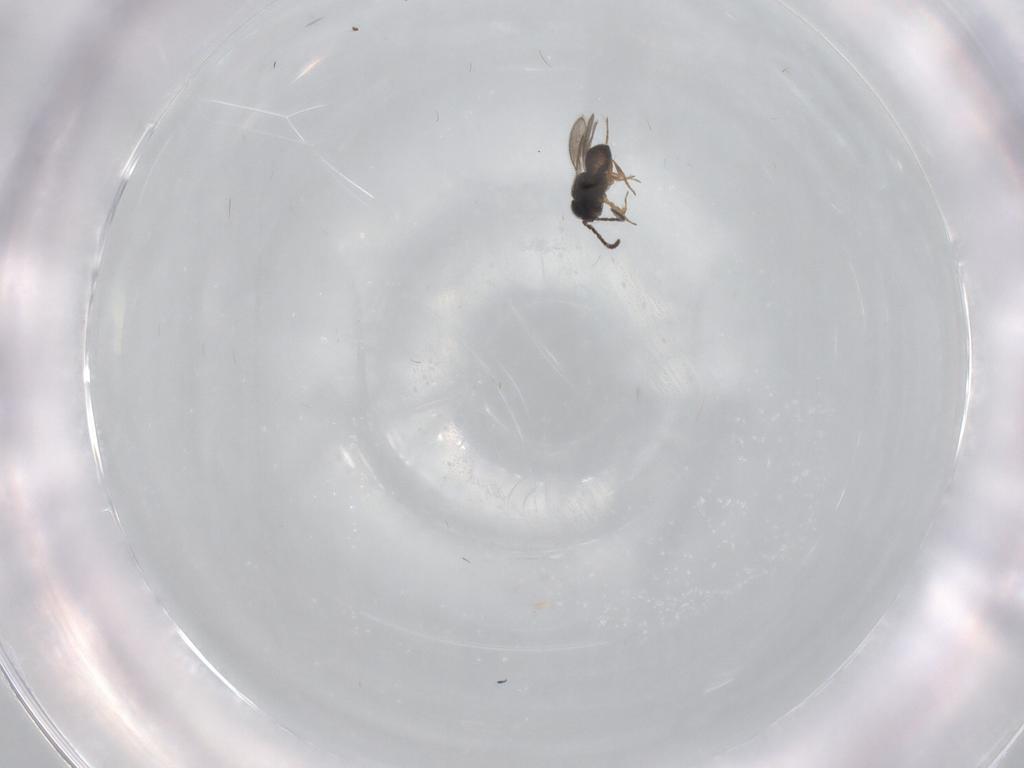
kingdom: Animalia
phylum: Arthropoda
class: Insecta
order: Hymenoptera
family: Scelionidae
